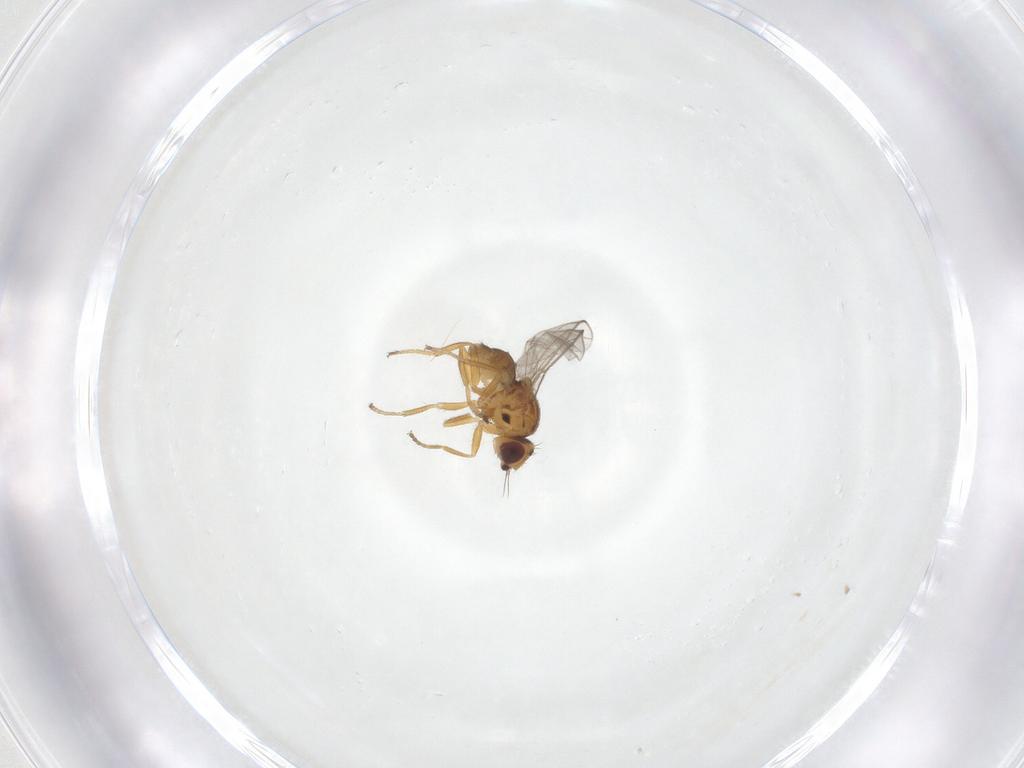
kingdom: Animalia
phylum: Arthropoda
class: Insecta
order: Diptera
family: Chloropidae
